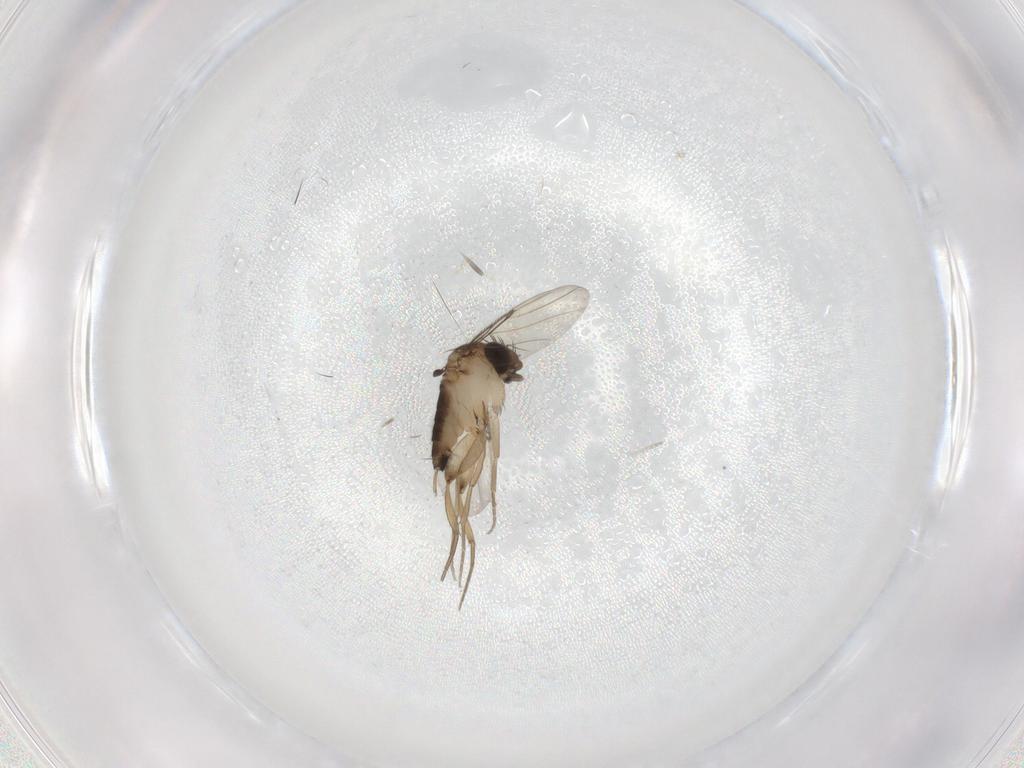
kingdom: Animalia
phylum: Arthropoda
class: Insecta
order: Diptera
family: Phoridae
